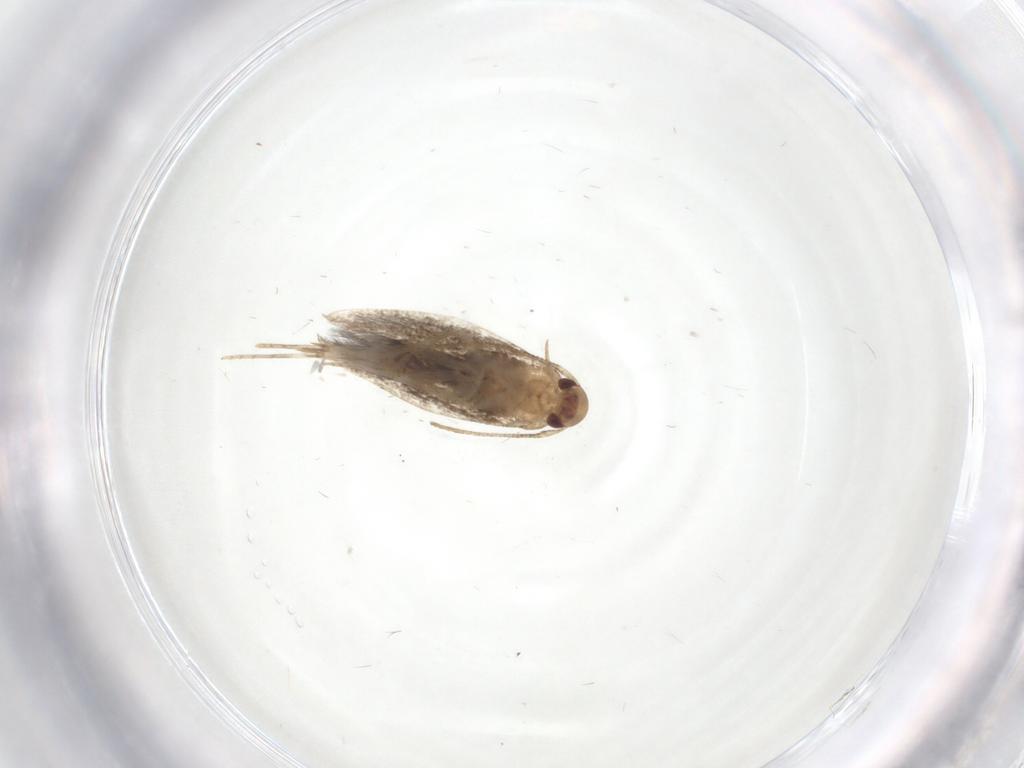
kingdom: Animalia
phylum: Arthropoda
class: Insecta
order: Lepidoptera
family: Gelechiidae
